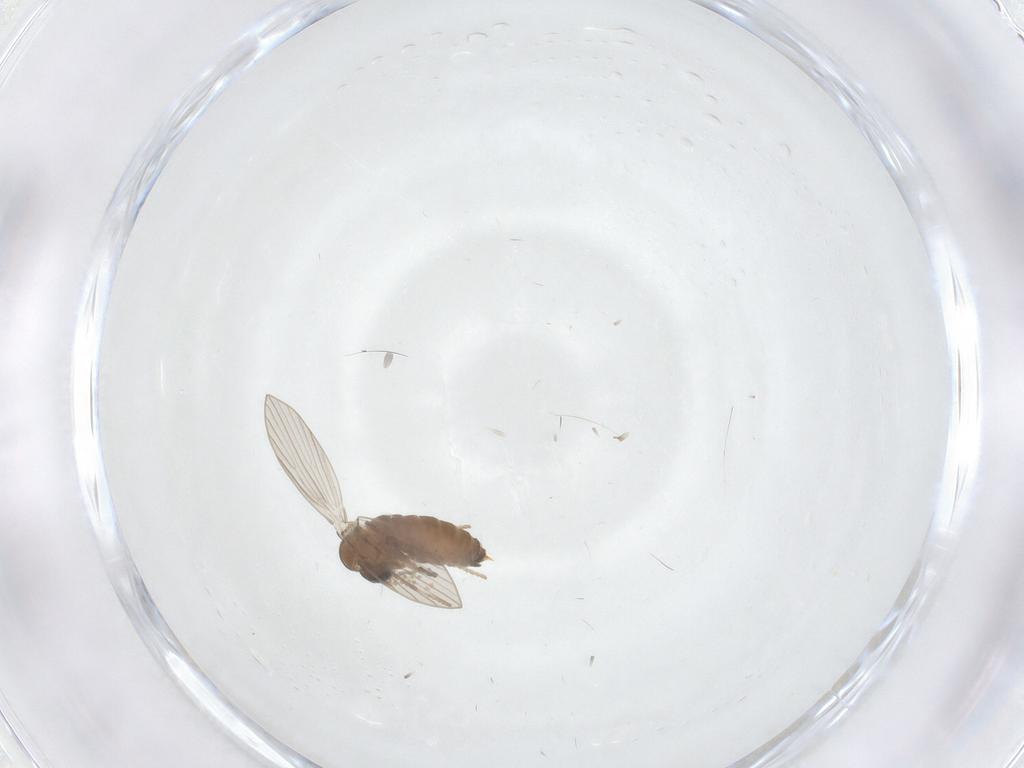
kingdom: Animalia
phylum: Arthropoda
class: Insecta
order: Diptera
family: Psychodidae
